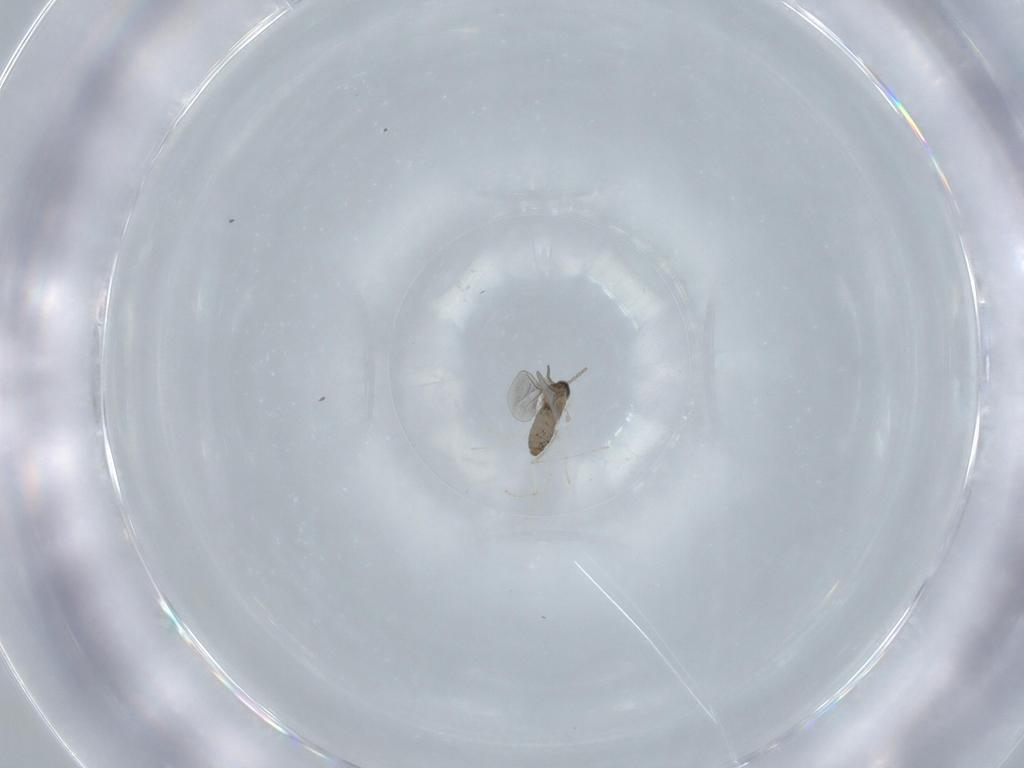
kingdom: Animalia
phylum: Arthropoda
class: Insecta
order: Diptera
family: Cecidomyiidae
